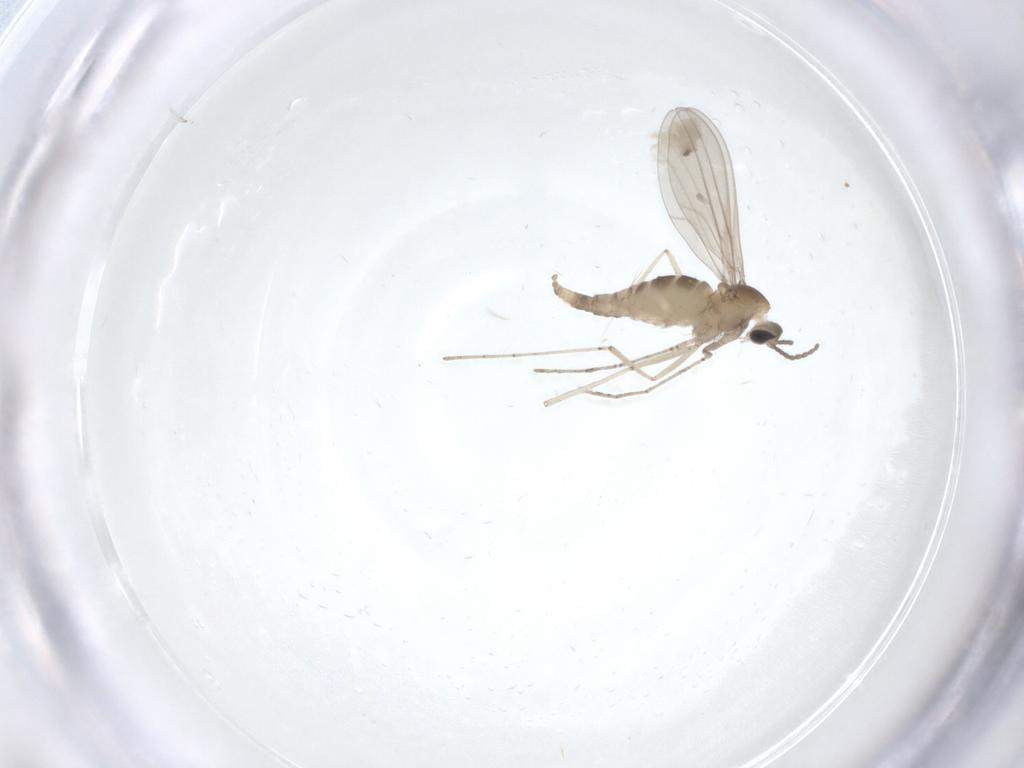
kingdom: Animalia
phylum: Arthropoda
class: Insecta
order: Diptera
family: Cecidomyiidae
